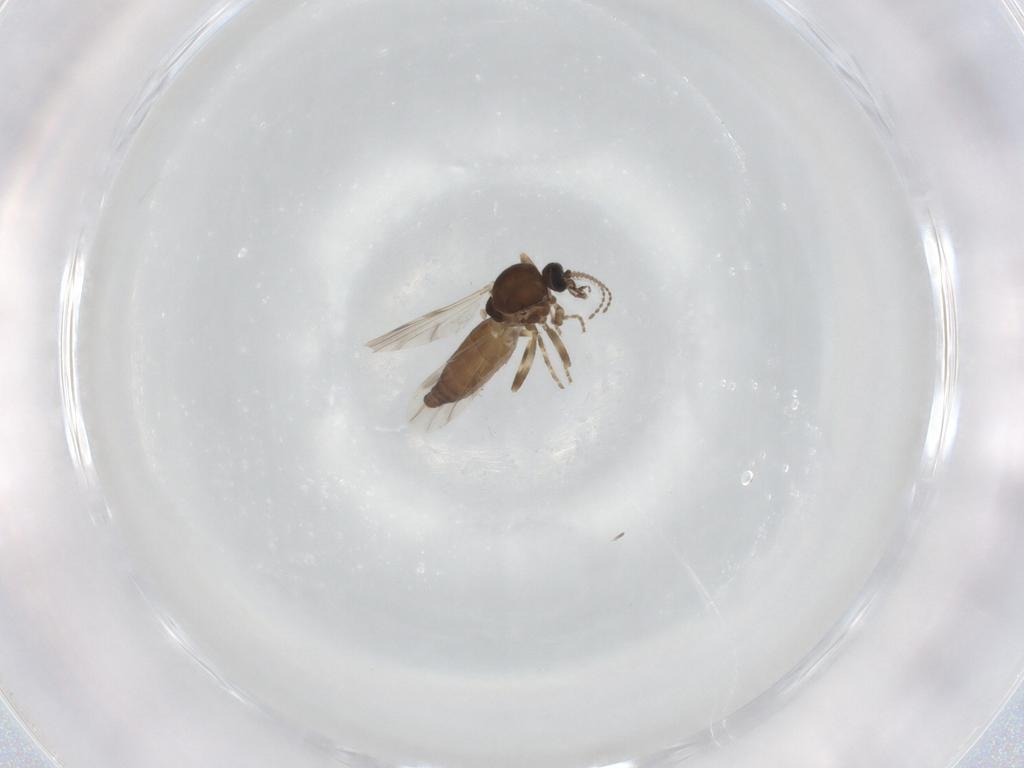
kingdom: Animalia
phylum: Arthropoda
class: Insecta
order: Diptera
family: Ceratopogonidae
